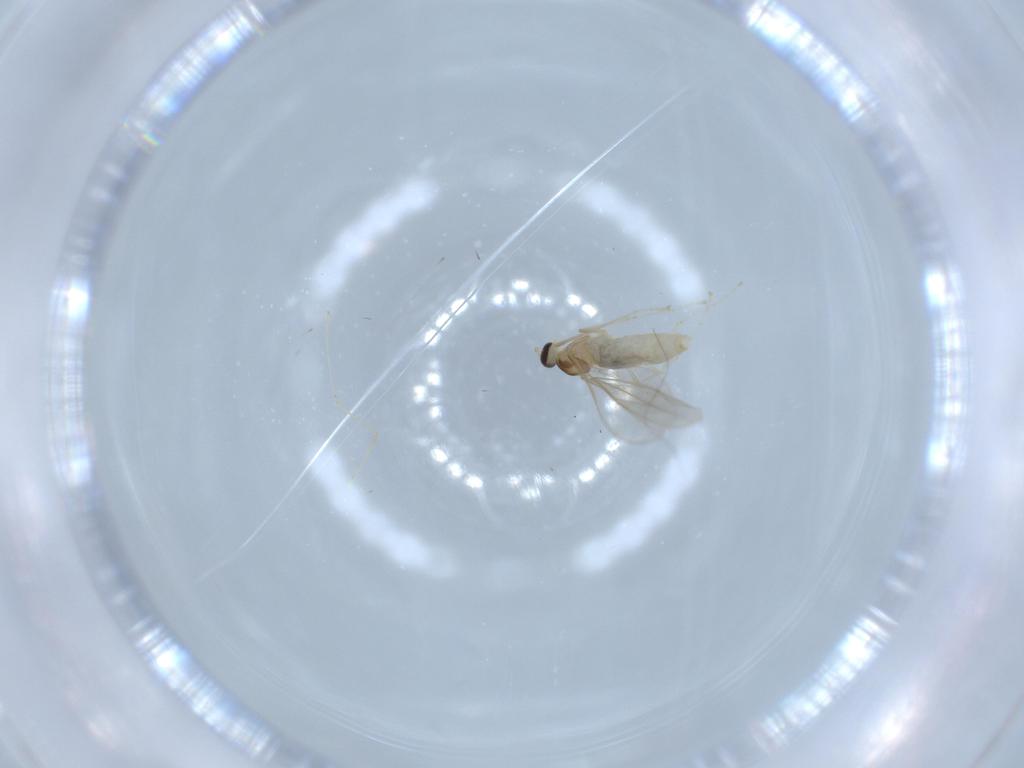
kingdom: Animalia
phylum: Arthropoda
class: Insecta
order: Diptera
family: Cecidomyiidae
